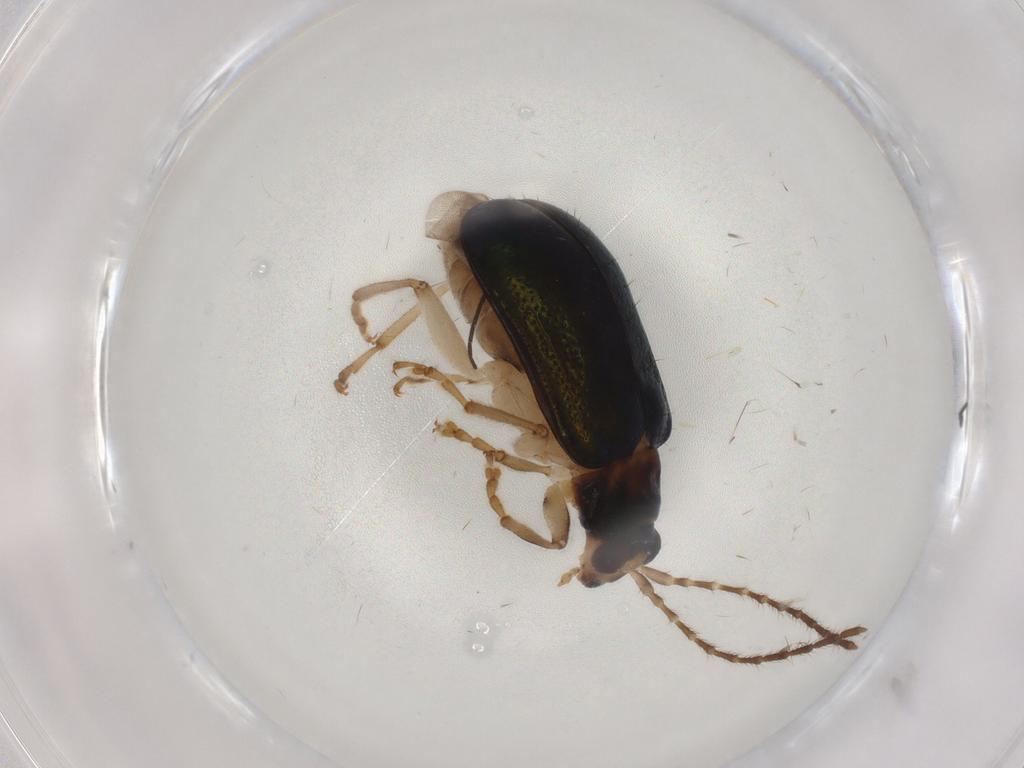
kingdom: Animalia
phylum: Arthropoda
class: Insecta
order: Coleoptera
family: Chrysomelidae
